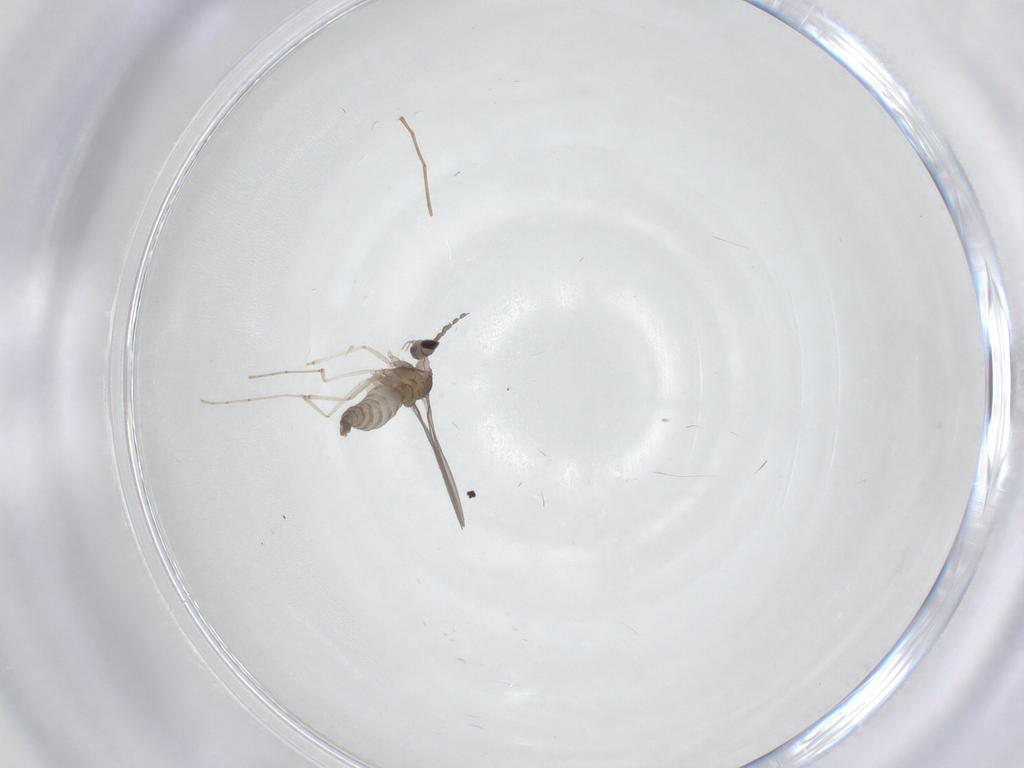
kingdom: Animalia
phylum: Arthropoda
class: Insecta
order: Diptera
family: Cecidomyiidae
